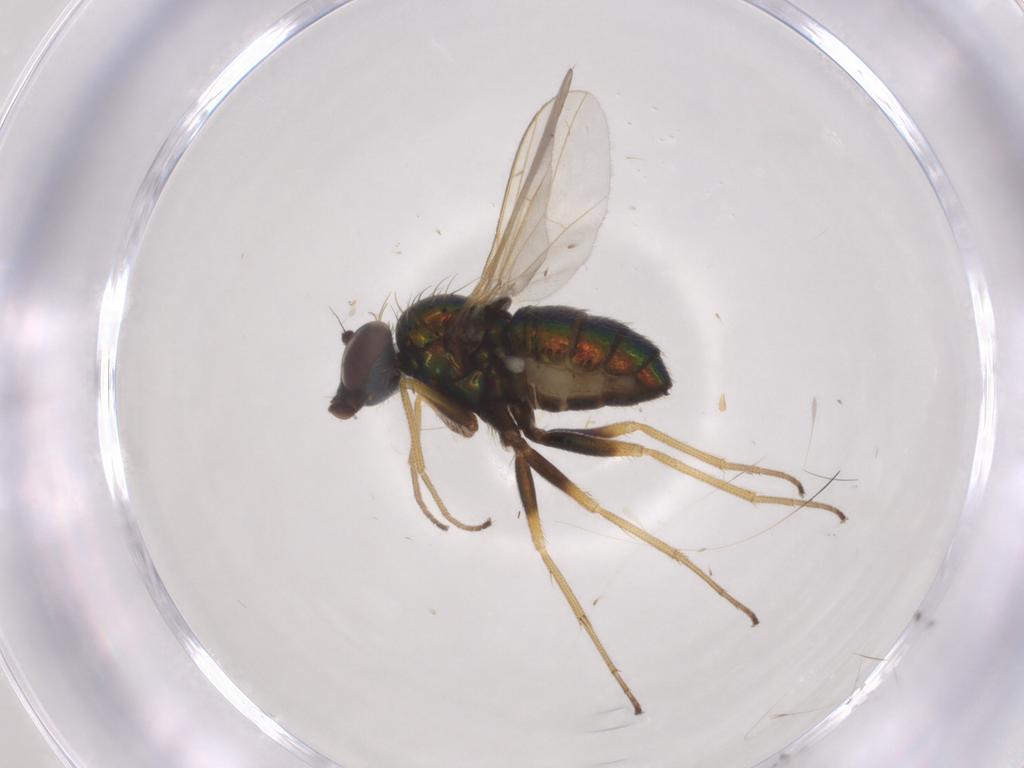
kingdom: Animalia
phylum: Arthropoda
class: Insecta
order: Diptera
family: Dolichopodidae
